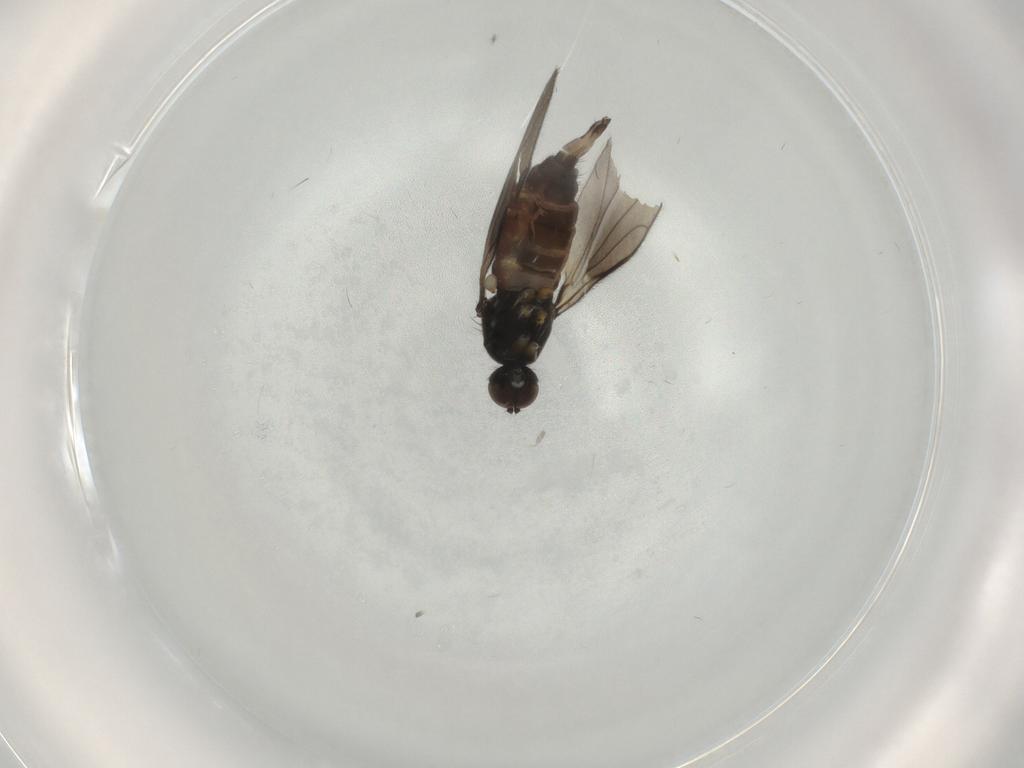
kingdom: Animalia
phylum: Arthropoda
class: Insecta
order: Diptera
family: Hybotidae
